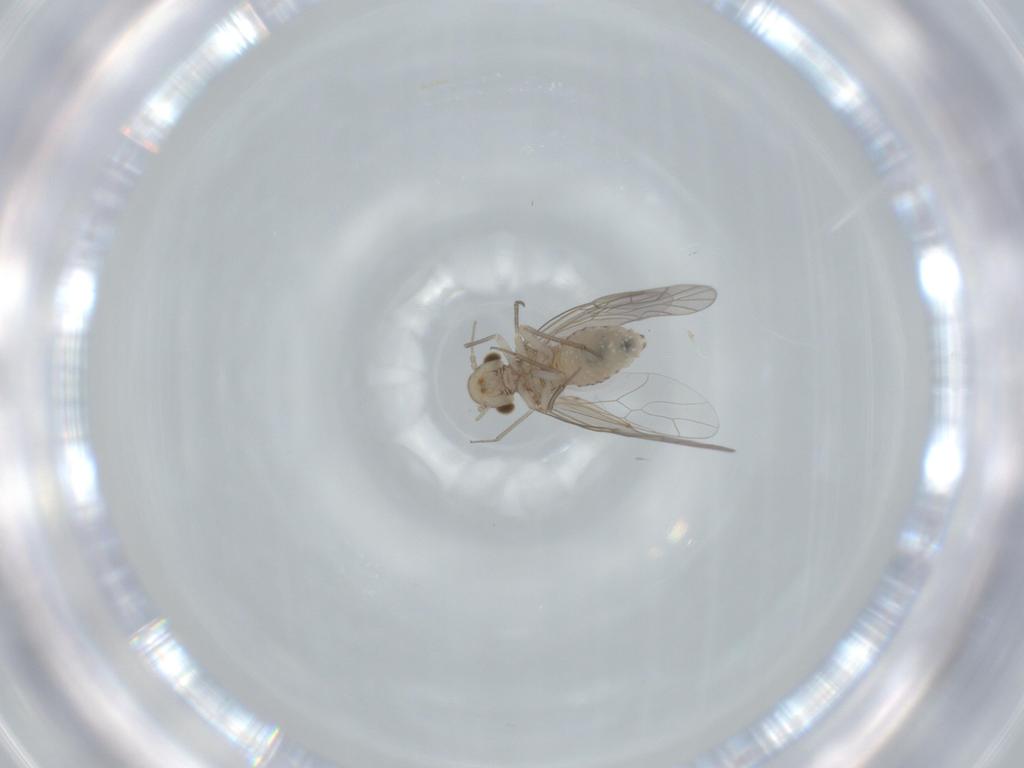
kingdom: Animalia
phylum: Arthropoda
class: Insecta
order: Psocodea
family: Lachesillidae
